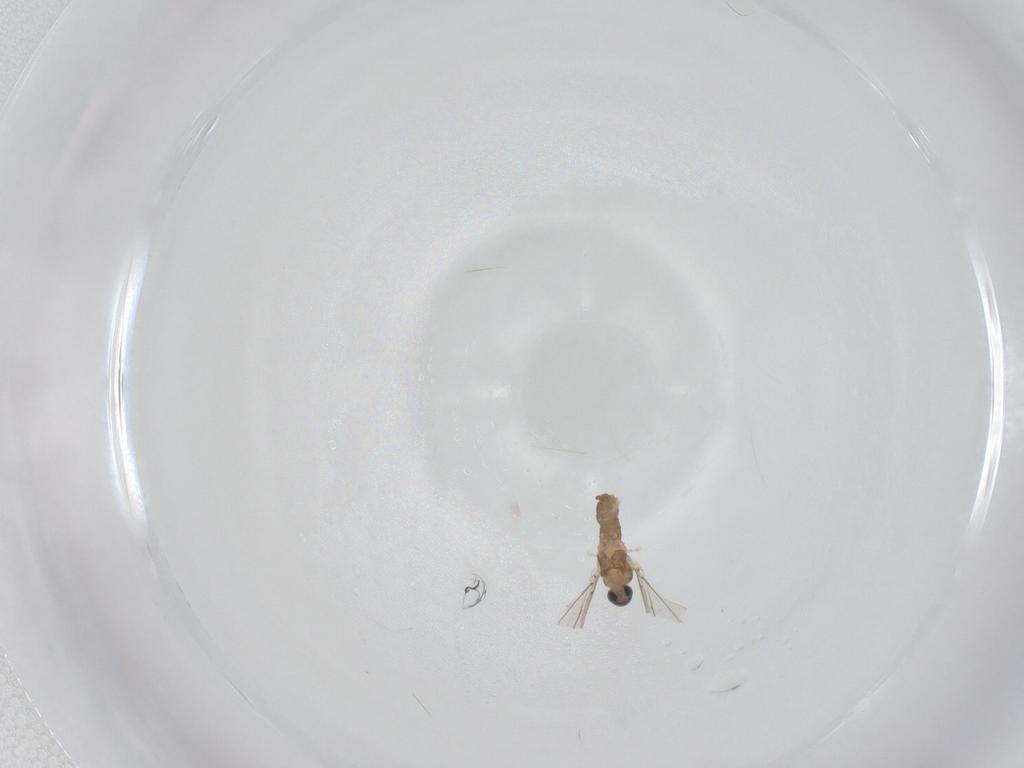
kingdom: Animalia
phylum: Arthropoda
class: Insecta
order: Diptera
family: Cecidomyiidae
